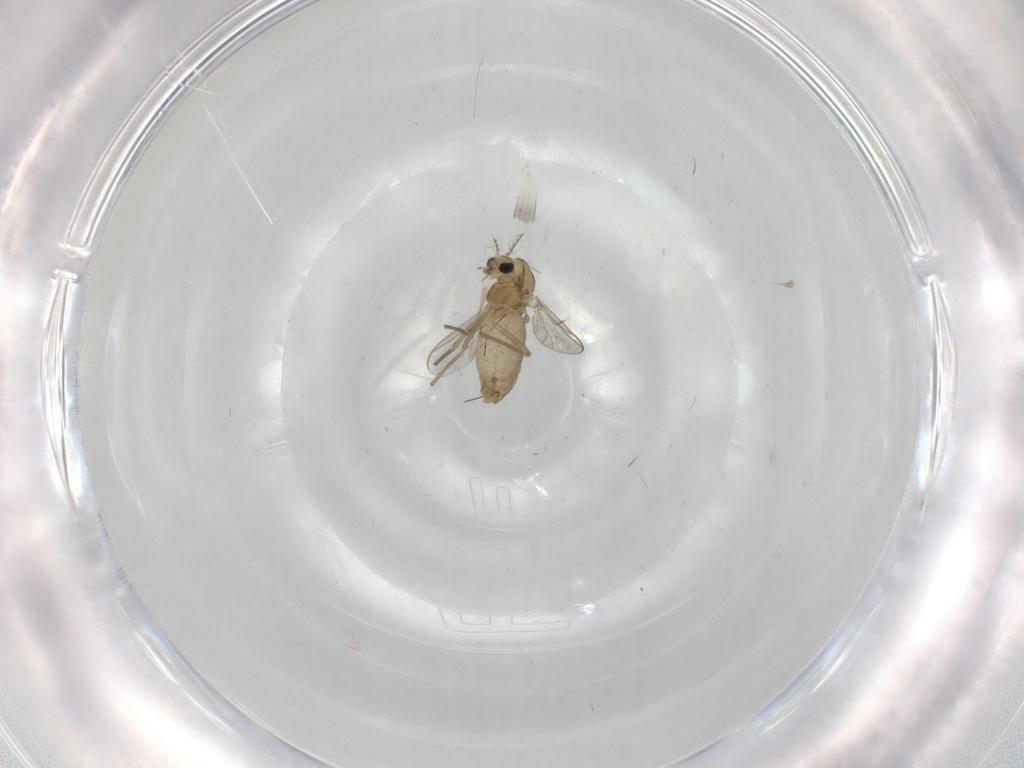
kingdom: Animalia
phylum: Arthropoda
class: Insecta
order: Diptera
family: Chironomidae
